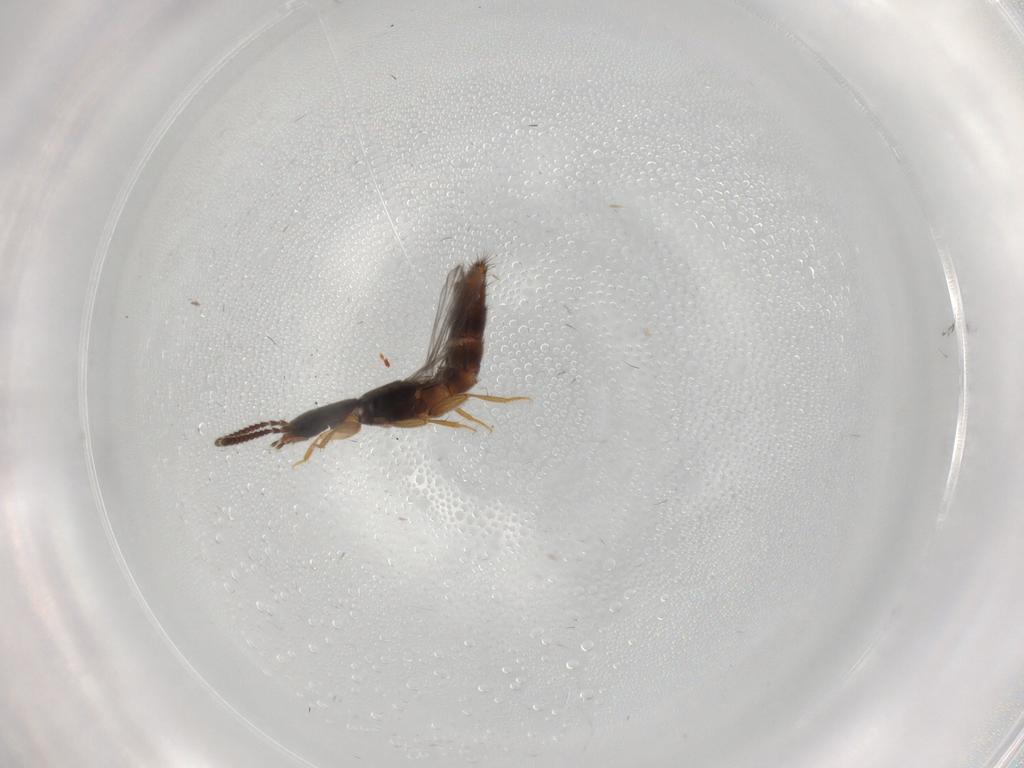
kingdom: Animalia
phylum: Arthropoda
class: Insecta
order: Coleoptera
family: Staphylinidae
